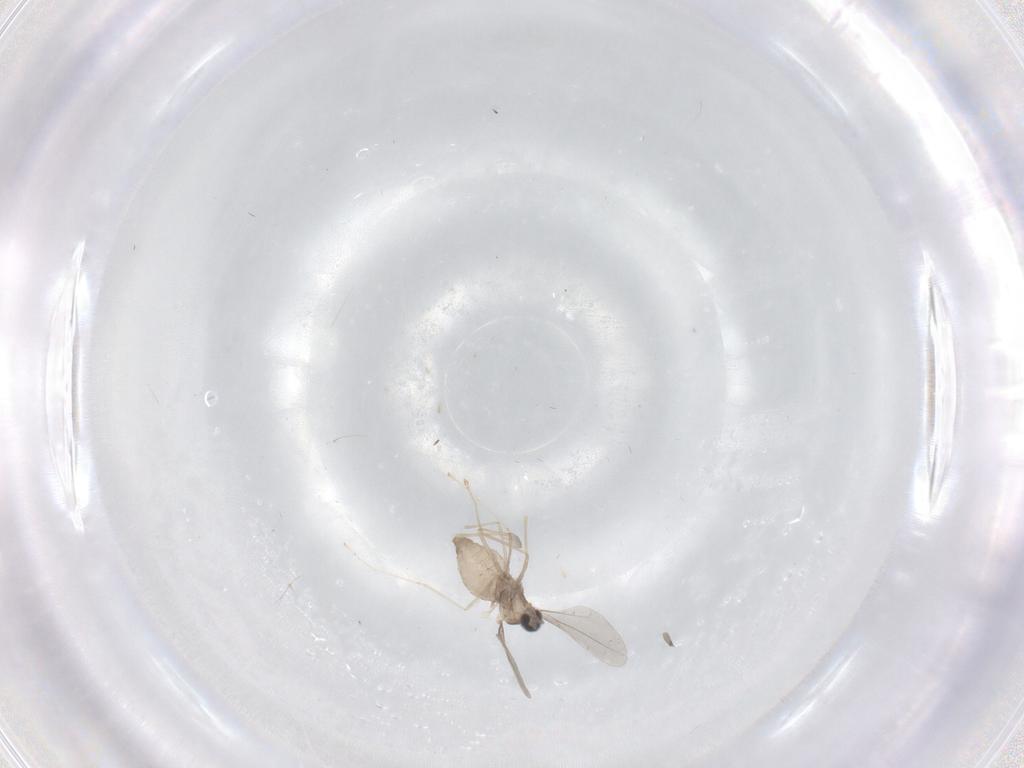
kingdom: Animalia
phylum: Arthropoda
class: Insecta
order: Diptera
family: Cecidomyiidae
